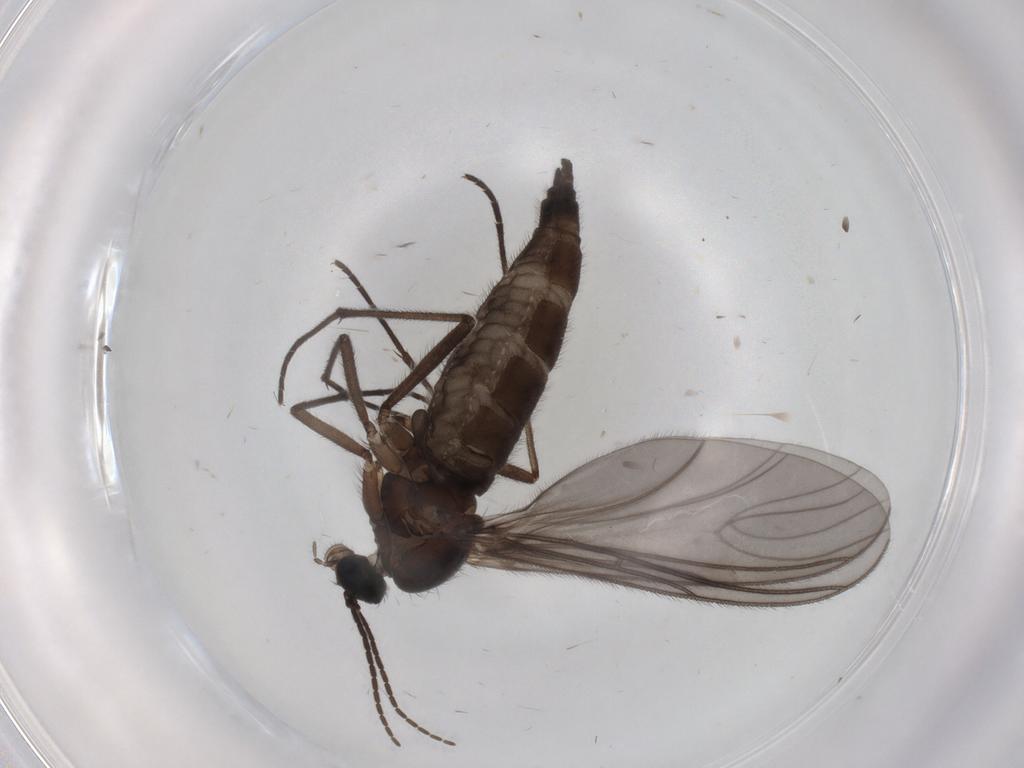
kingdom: Animalia
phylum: Arthropoda
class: Insecta
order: Diptera
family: Sciaridae
